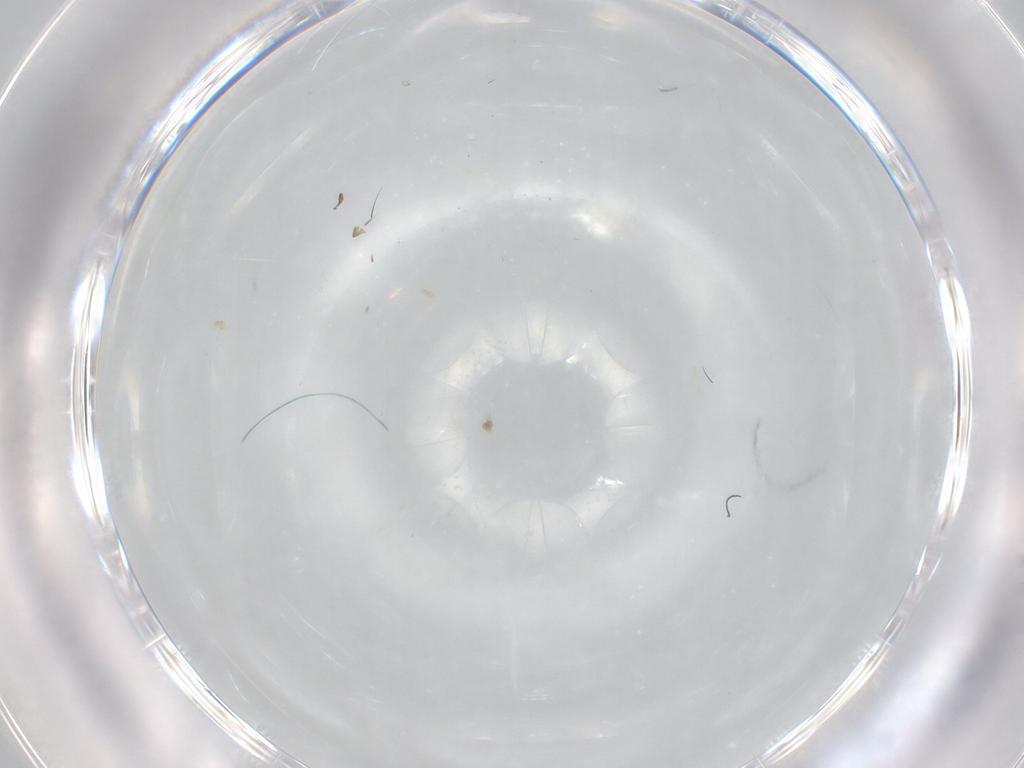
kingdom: Animalia
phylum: Arthropoda
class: Insecta
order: Diptera
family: Chironomidae
